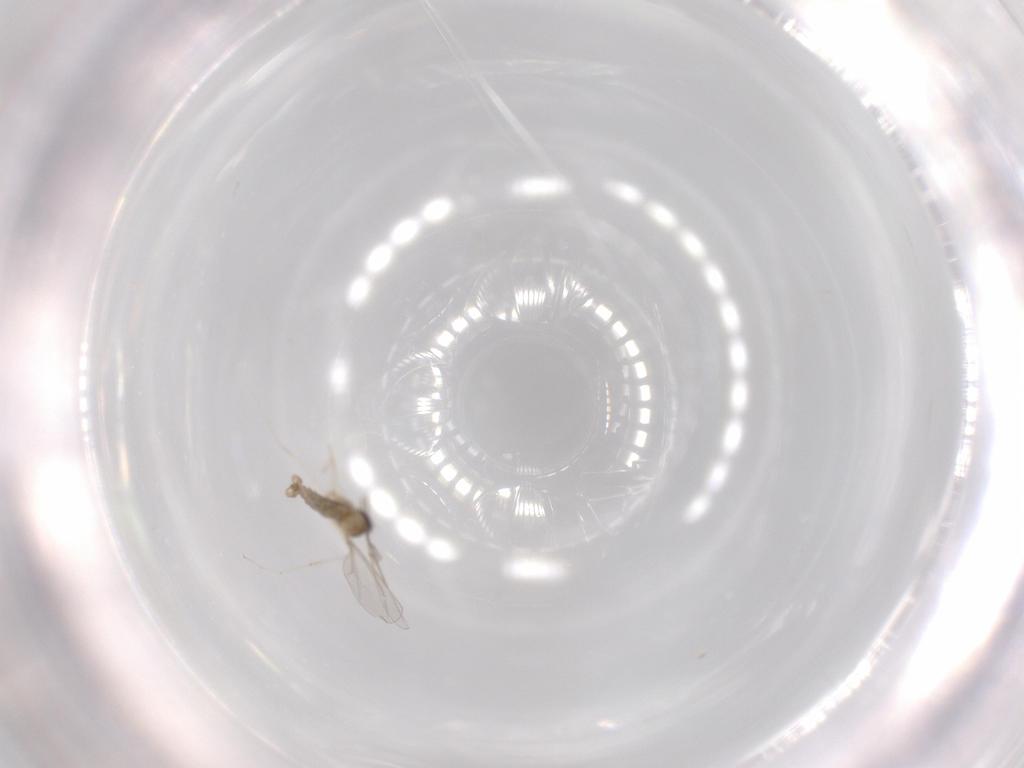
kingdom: Animalia
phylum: Arthropoda
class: Insecta
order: Diptera
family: Cecidomyiidae
